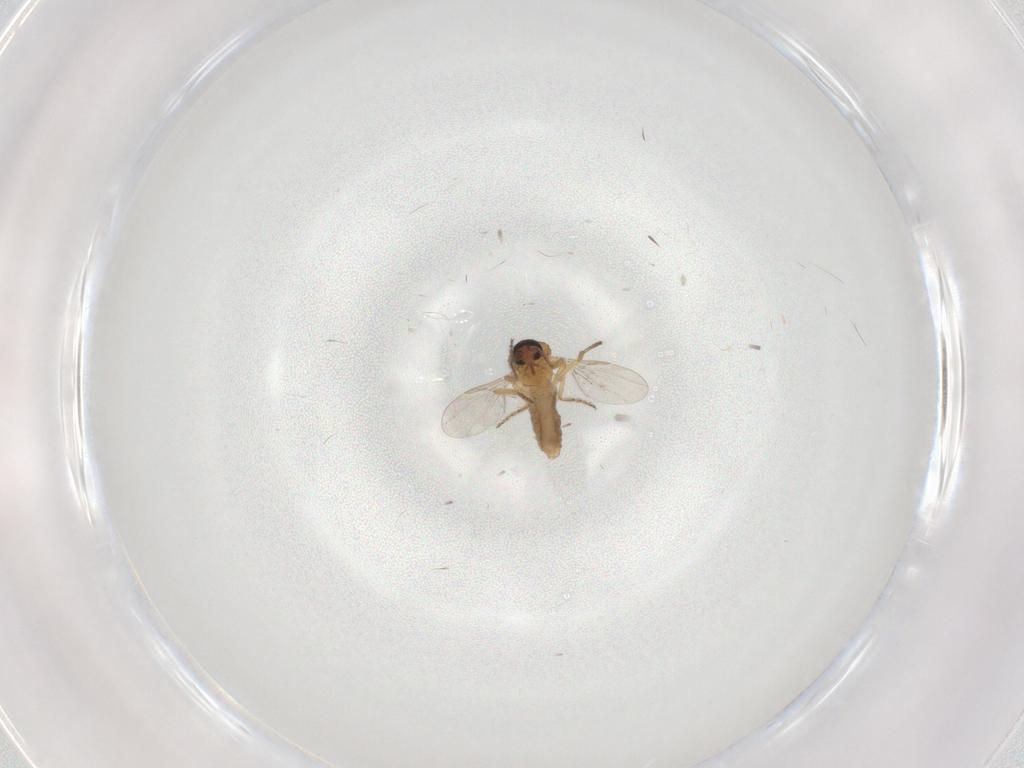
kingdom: Animalia
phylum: Arthropoda
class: Insecta
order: Diptera
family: Ceratopogonidae
